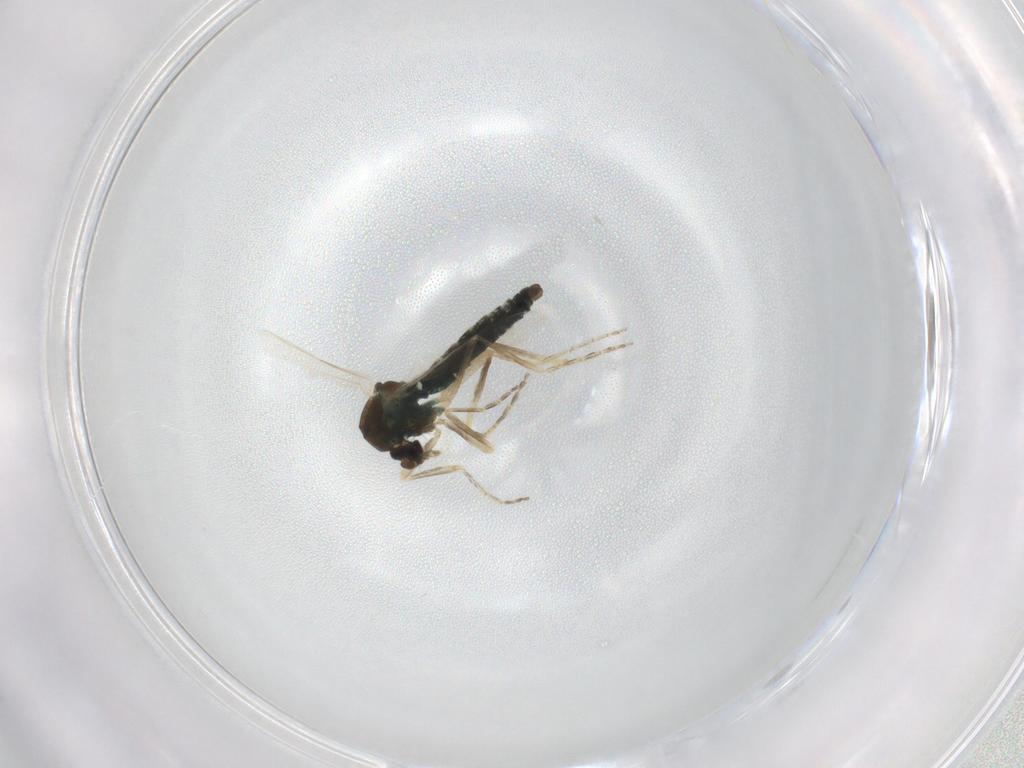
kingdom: Animalia
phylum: Arthropoda
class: Insecta
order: Diptera
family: Ceratopogonidae
